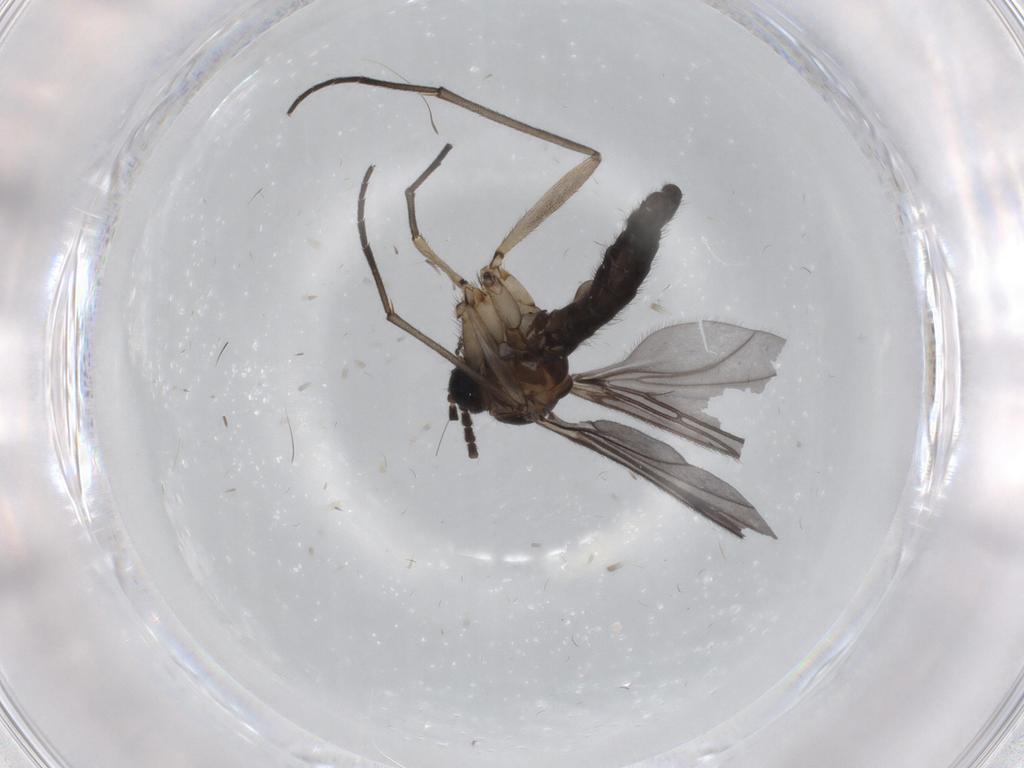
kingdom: Animalia
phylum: Arthropoda
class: Insecta
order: Diptera
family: Sciaridae
